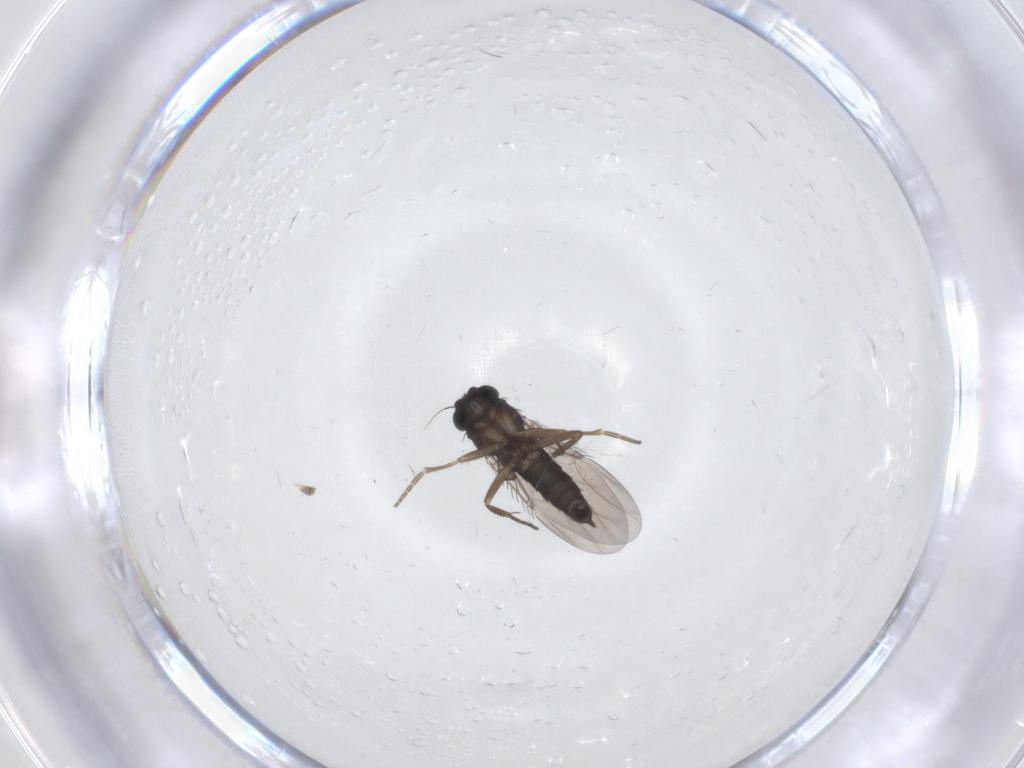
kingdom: Animalia
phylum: Arthropoda
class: Insecta
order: Diptera
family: Phoridae
